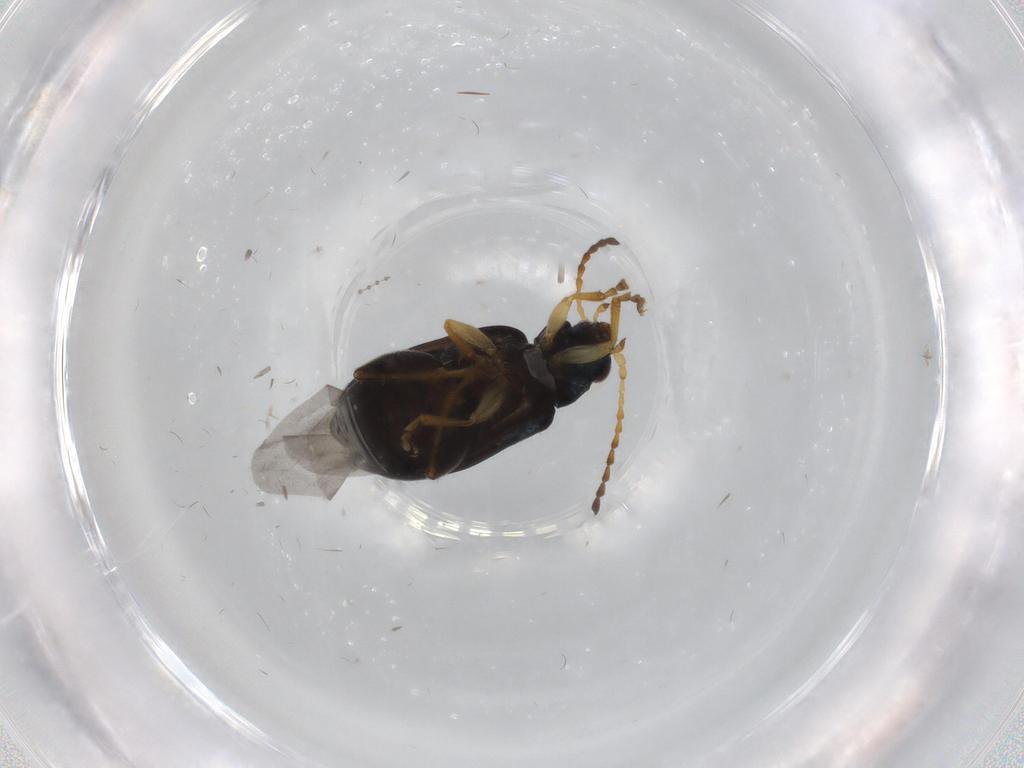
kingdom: Animalia
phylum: Arthropoda
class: Insecta
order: Coleoptera
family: Chrysomelidae
